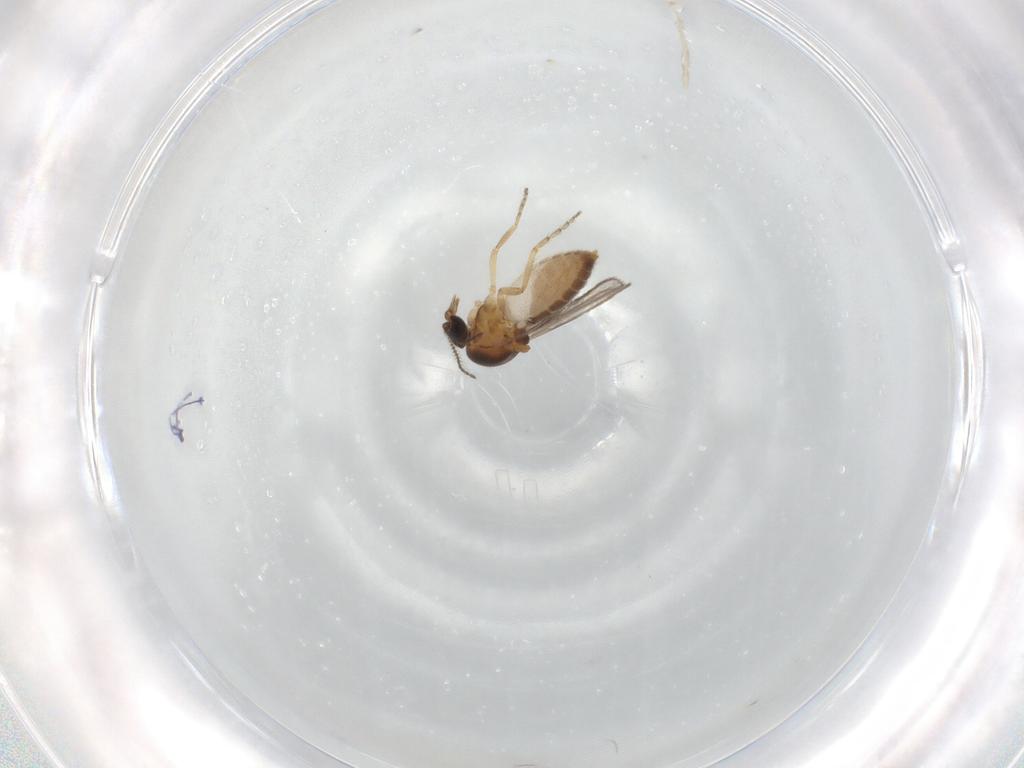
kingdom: Animalia
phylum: Arthropoda
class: Insecta
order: Diptera
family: Ceratopogonidae
